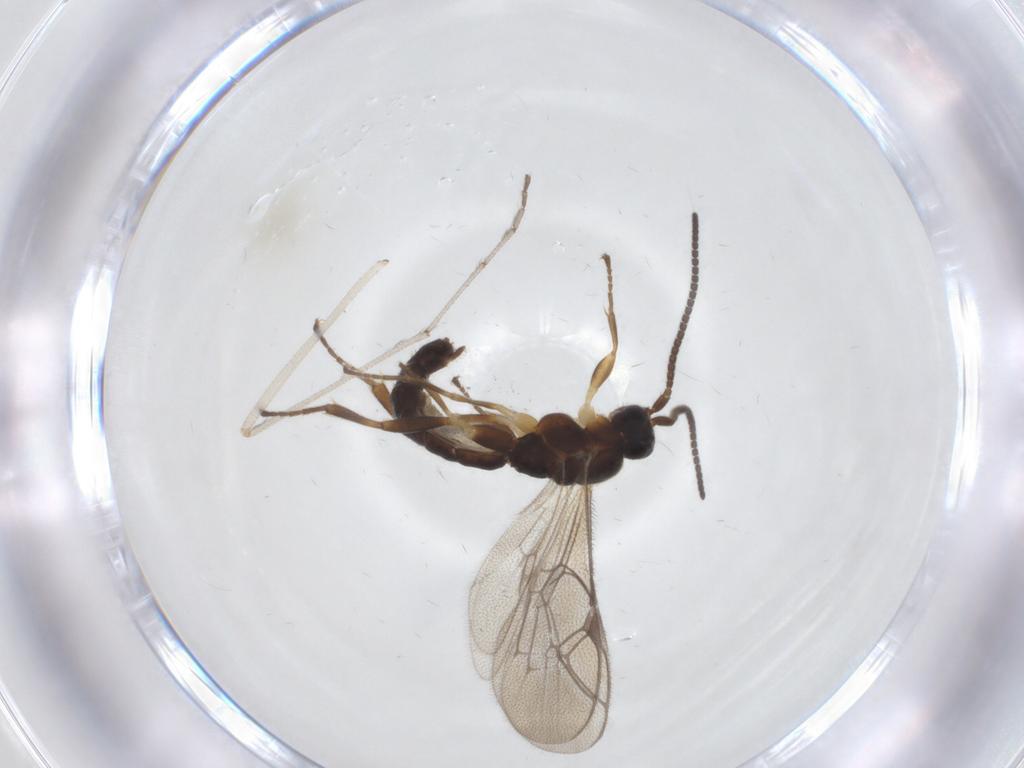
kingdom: Animalia
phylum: Arthropoda
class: Insecta
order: Hymenoptera
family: Ichneumonidae
